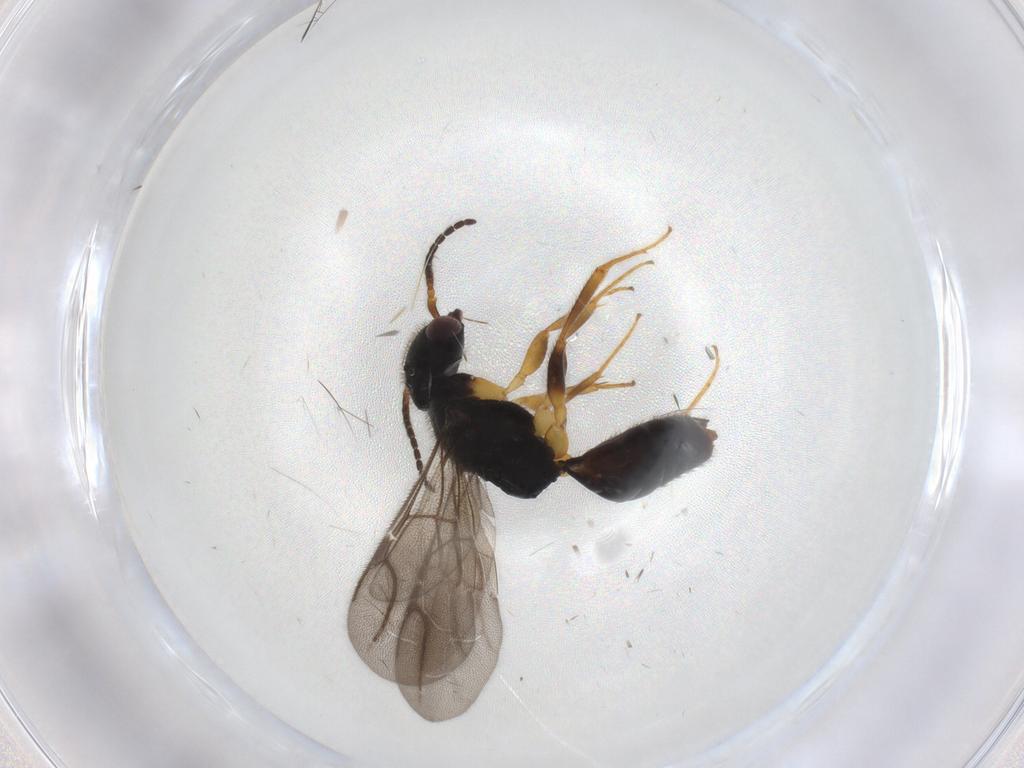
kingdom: Animalia
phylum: Arthropoda
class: Insecta
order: Hymenoptera
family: Bethylidae
